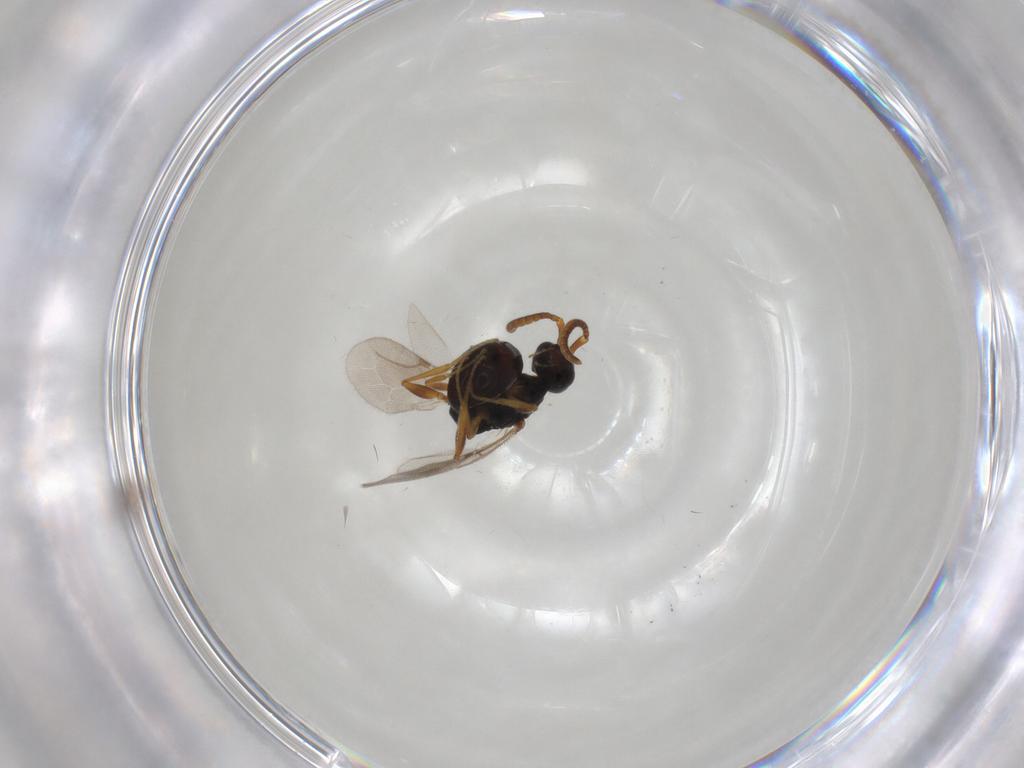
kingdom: Animalia
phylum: Arthropoda
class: Insecta
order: Hymenoptera
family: Bethylidae
